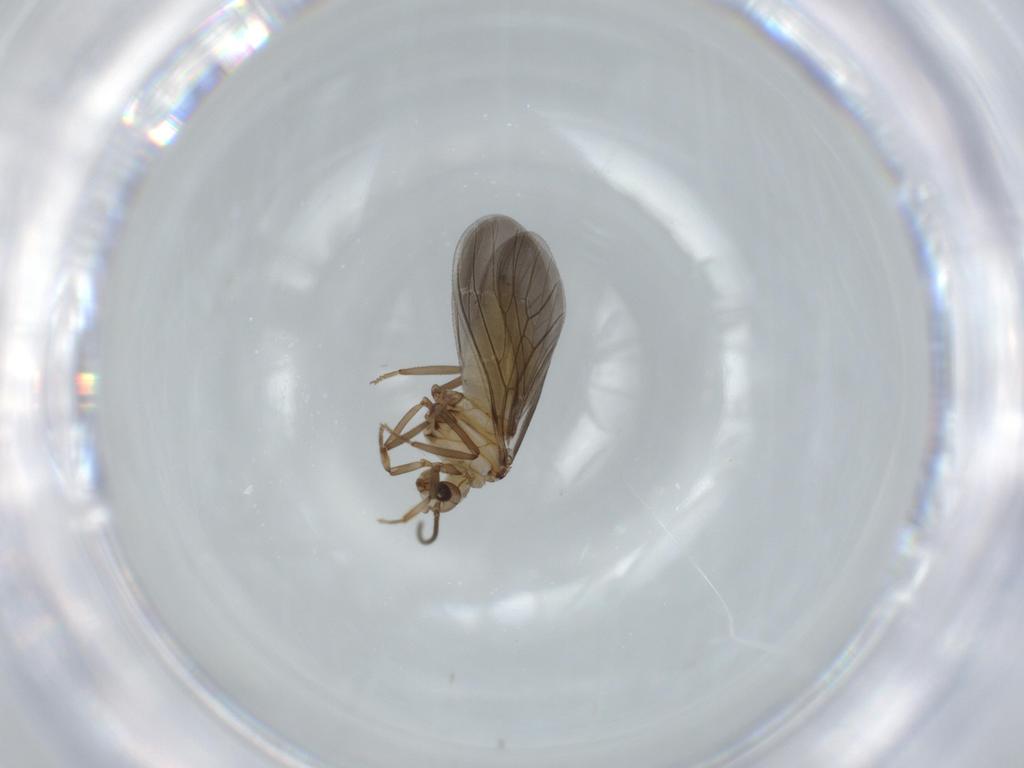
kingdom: Animalia
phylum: Arthropoda
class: Insecta
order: Neuroptera
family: Coniopterygidae
